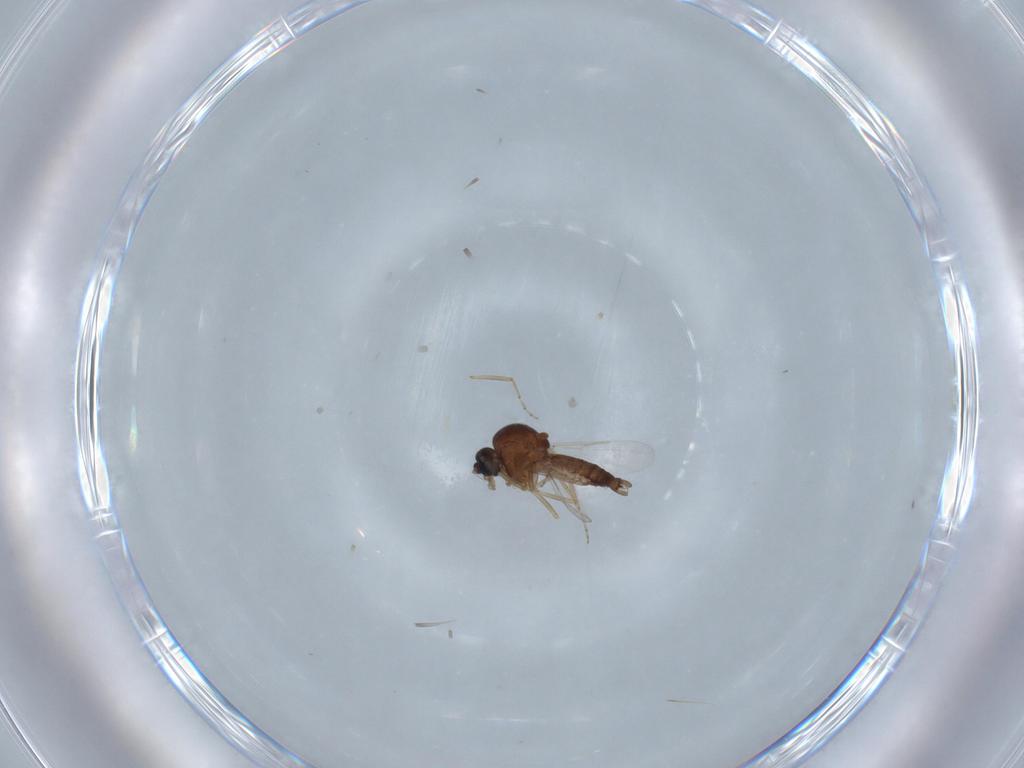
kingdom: Animalia
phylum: Arthropoda
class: Insecta
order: Diptera
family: Ceratopogonidae
